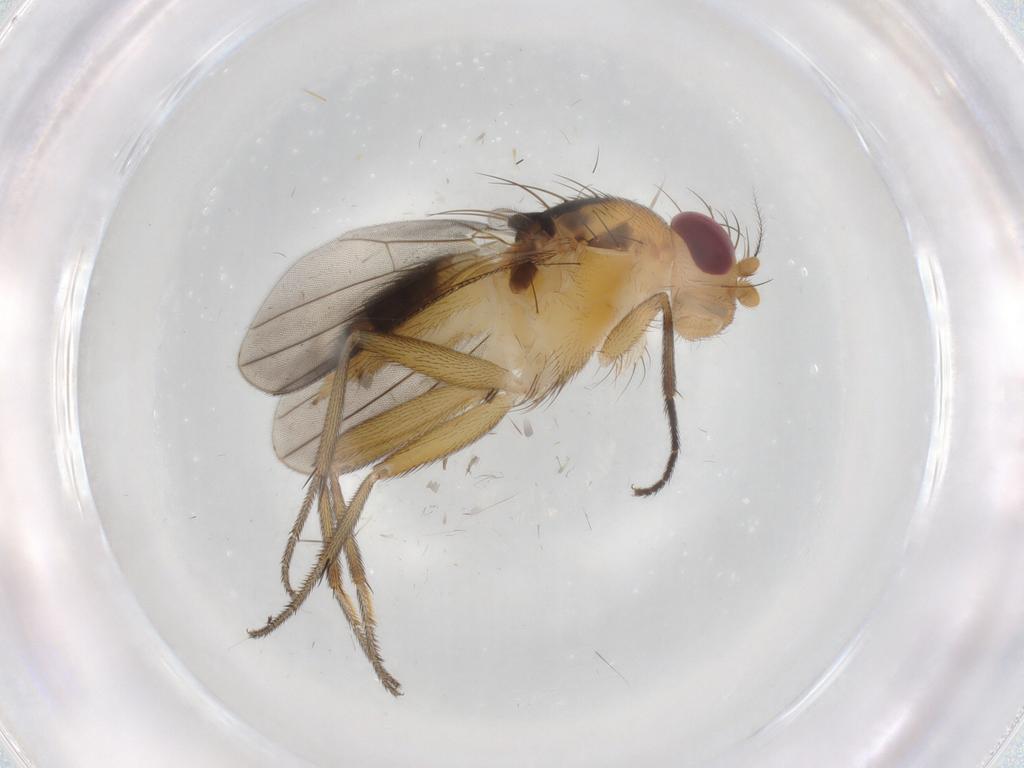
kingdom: Animalia
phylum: Arthropoda
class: Insecta
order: Diptera
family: Clusiidae
